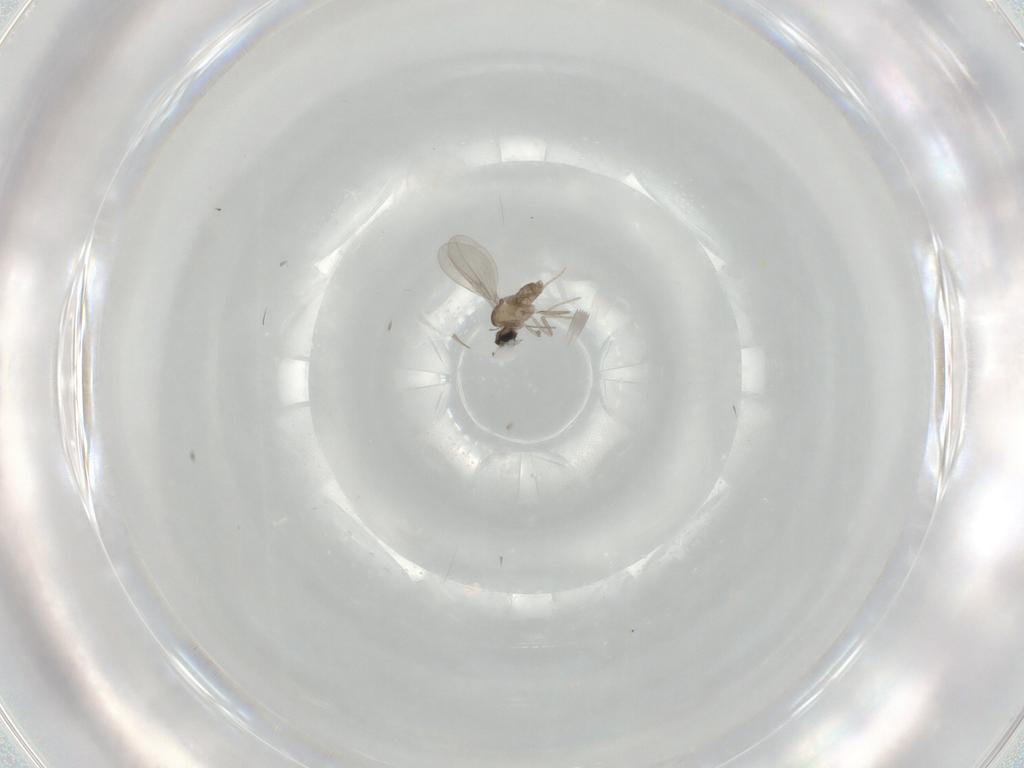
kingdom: Animalia
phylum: Arthropoda
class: Insecta
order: Diptera
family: Cecidomyiidae
